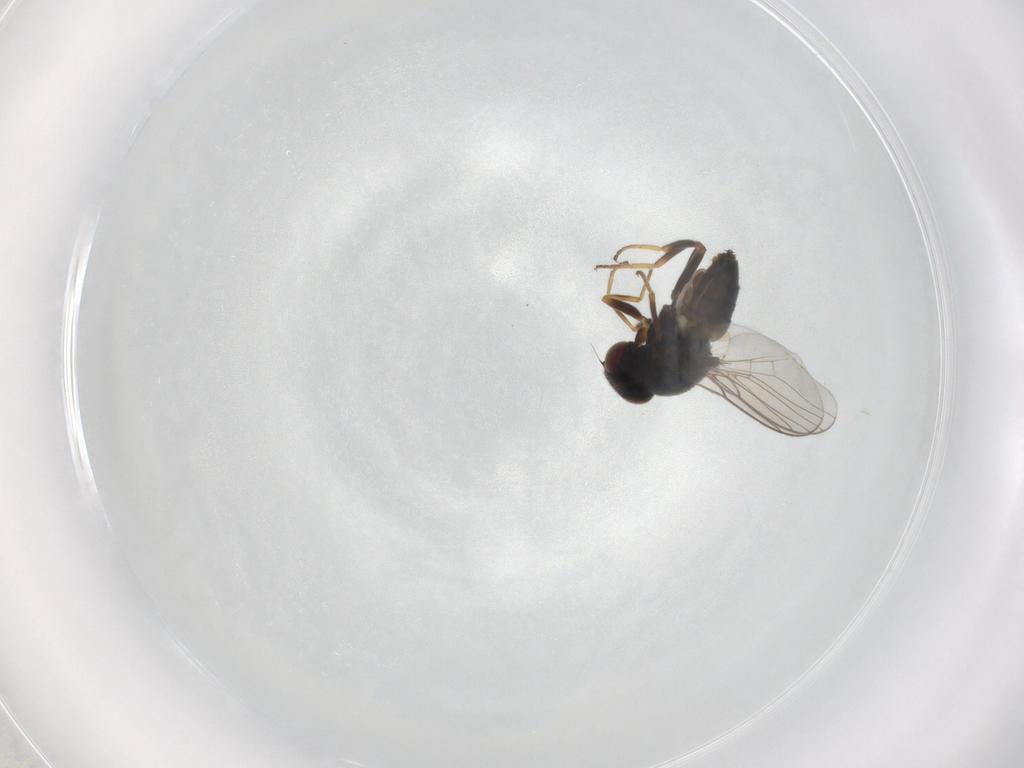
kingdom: Animalia
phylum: Arthropoda
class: Insecta
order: Diptera
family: Chloropidae
